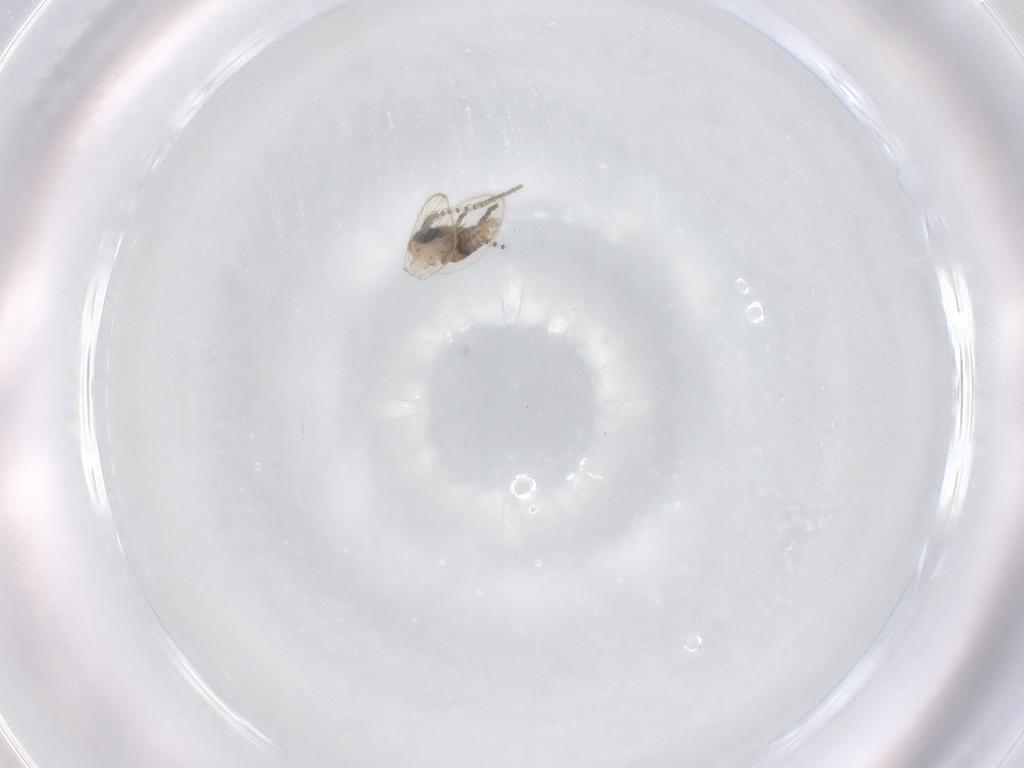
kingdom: Animalia
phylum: Arthropoda
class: Insecta
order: Diptera
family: Psychodidae
